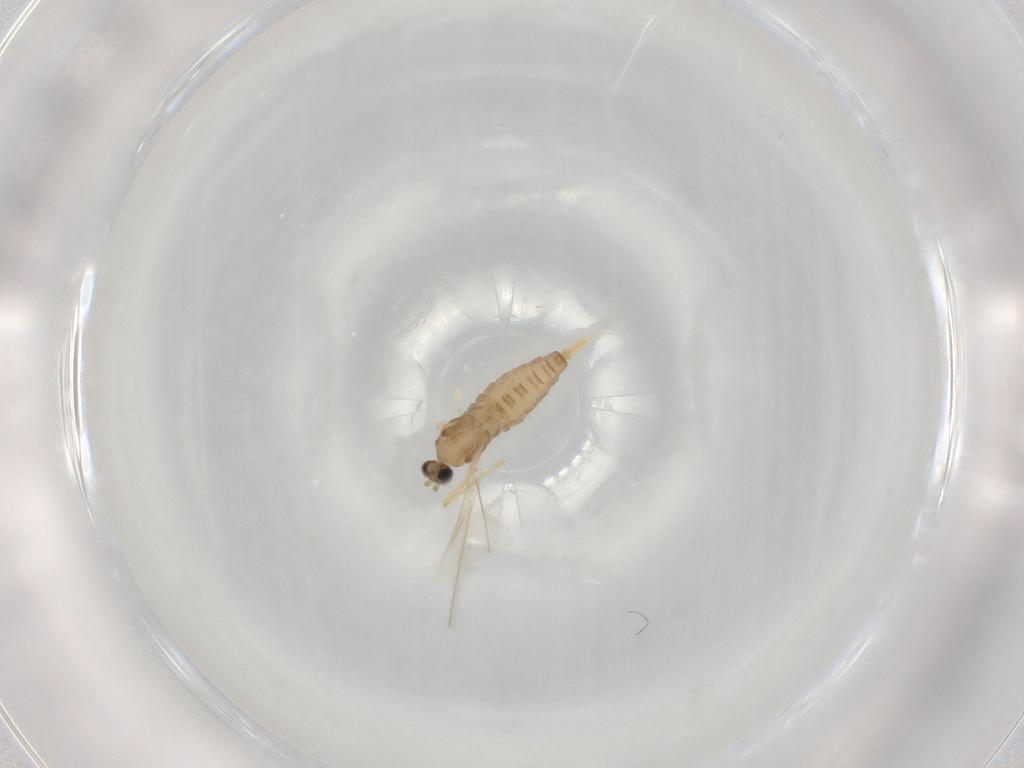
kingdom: Animalia
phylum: Arthropoda
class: Insecta
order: Diptera
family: Cecidomyiidae
